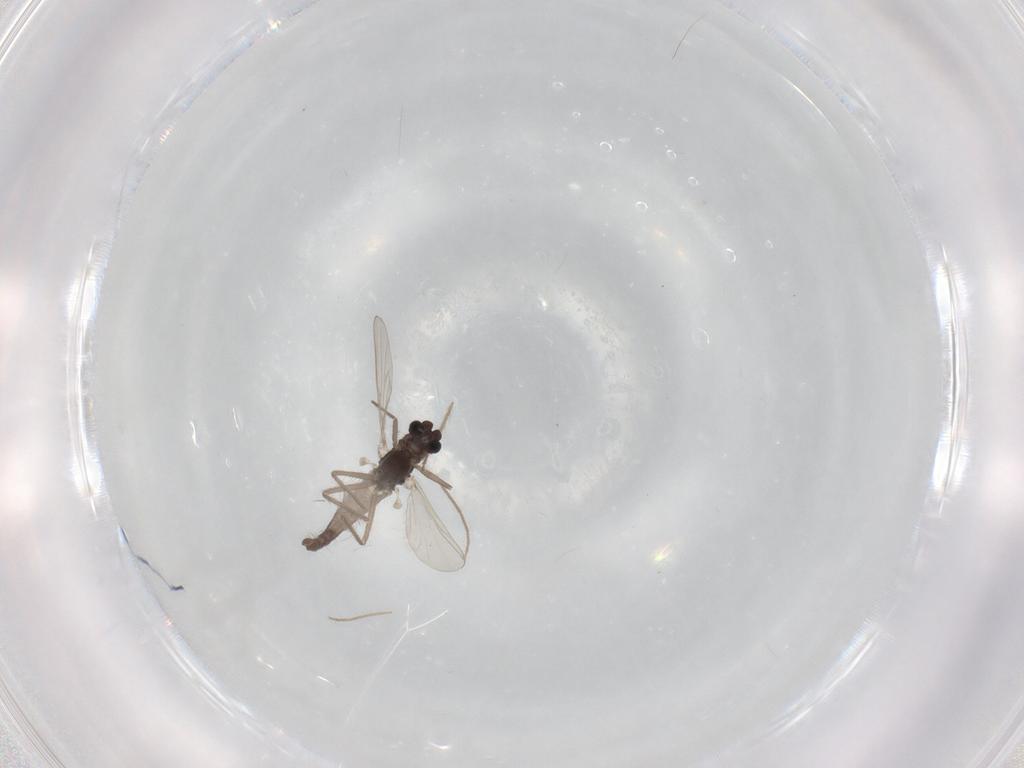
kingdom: Animalia
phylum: Arthropoda
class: Insecta
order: Diptera
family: Chironomidae
